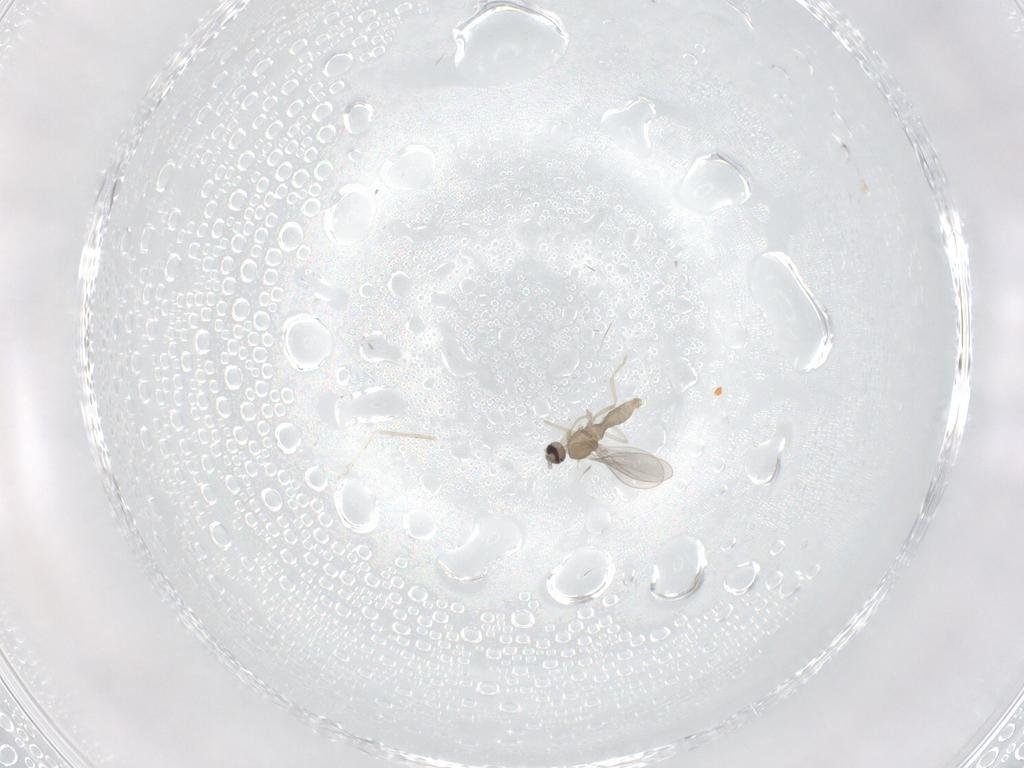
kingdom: Animalia
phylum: Arthropoda
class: Insecta
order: Diptera
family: Cecidomyiidae
